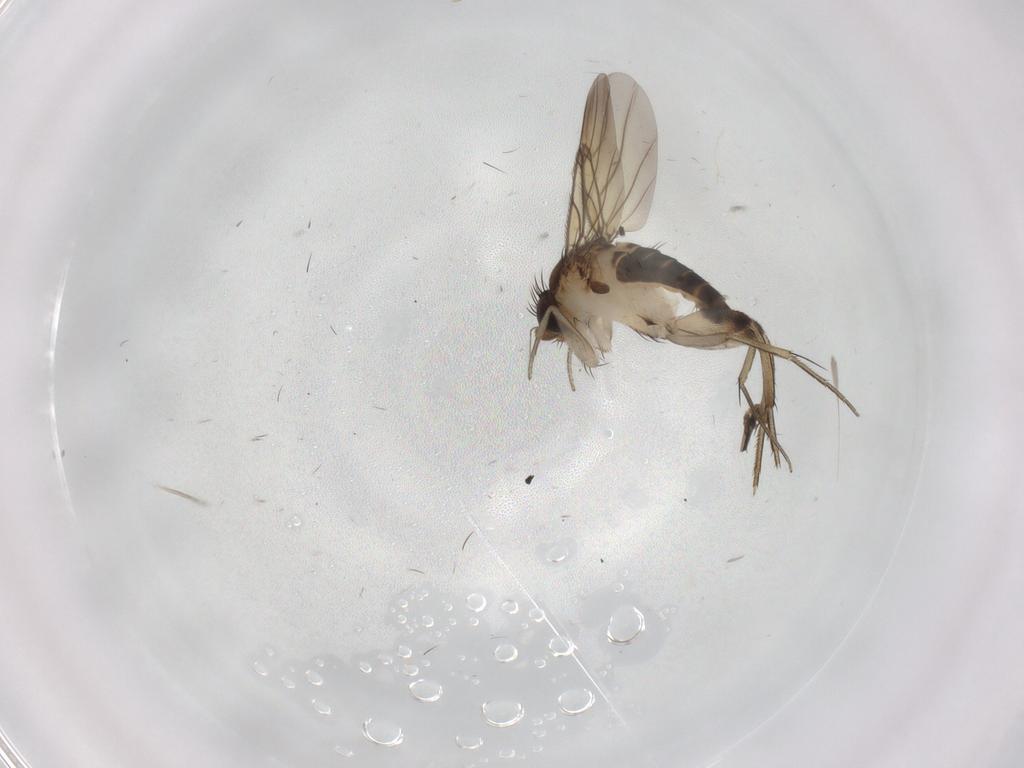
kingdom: Animalia
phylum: Arthropoda
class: Insecta
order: Diptera
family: Phoridae
